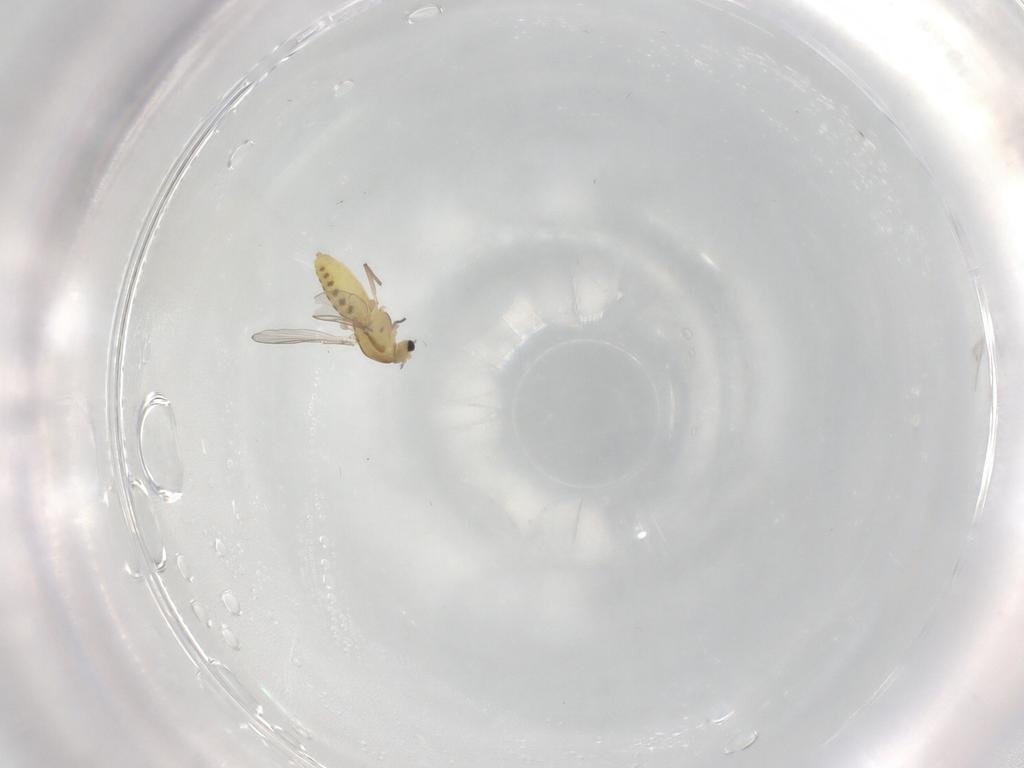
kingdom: Animalia
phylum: Arthropoda
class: Insecta
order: Diptera
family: Chironomidae
